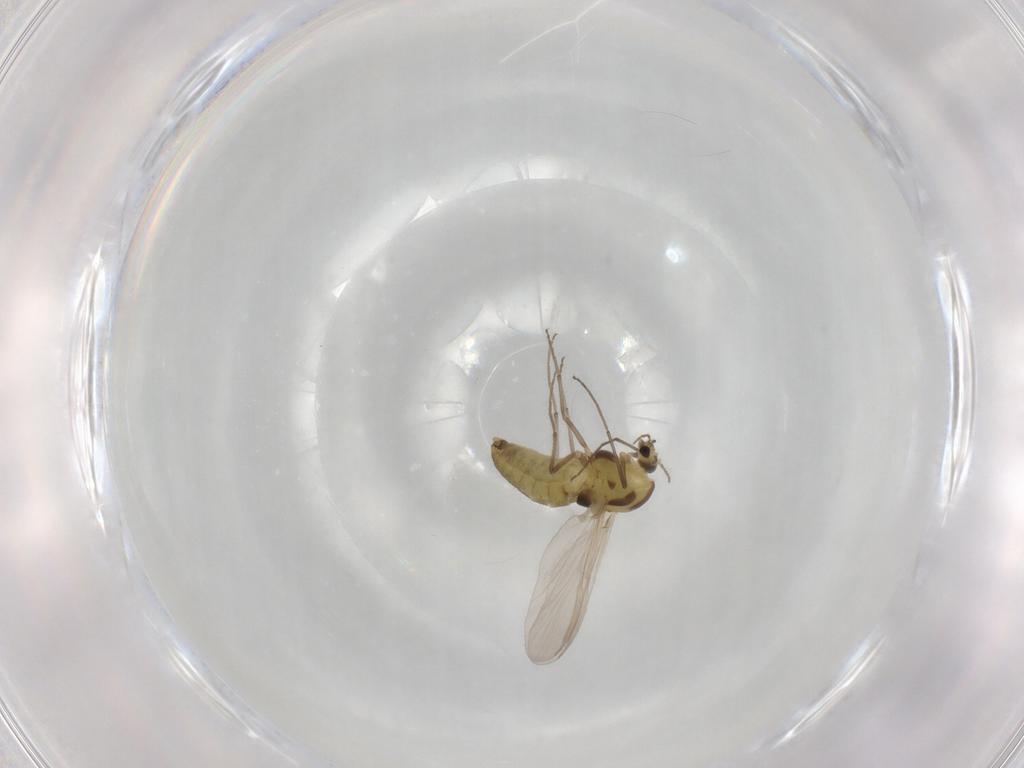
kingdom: Animalia
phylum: Arthropoda
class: Insecta
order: Diptera
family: Chironomidae
